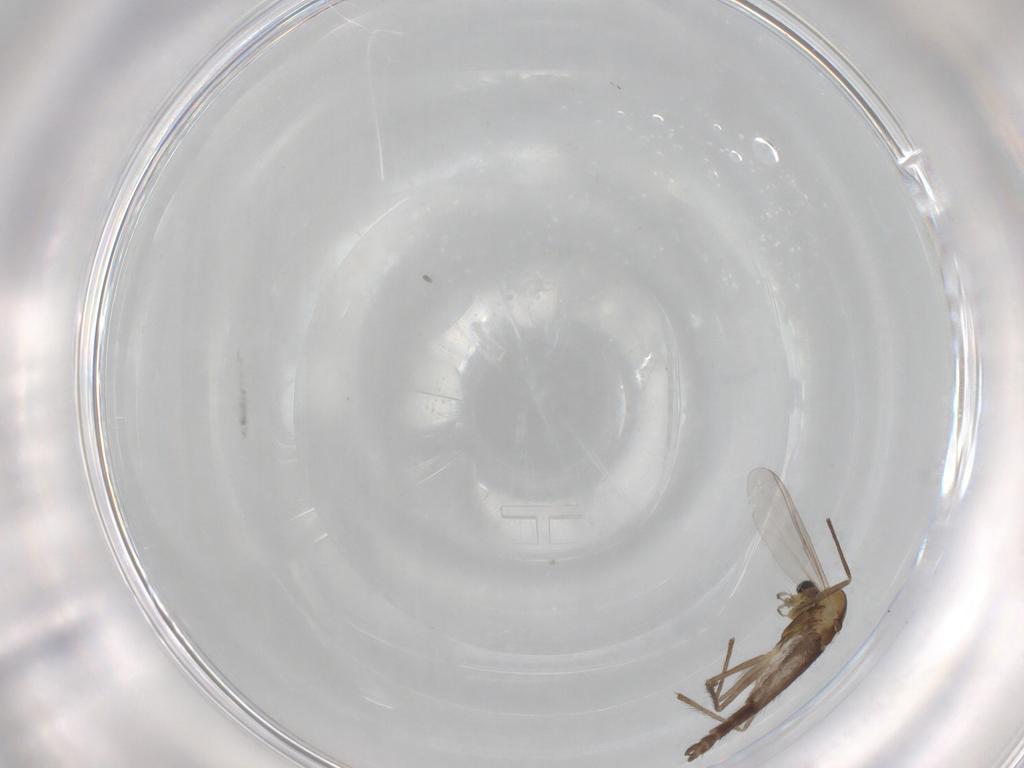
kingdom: Animalia
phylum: Arthropoda
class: Insecta
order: Diptera
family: Chironomidae
